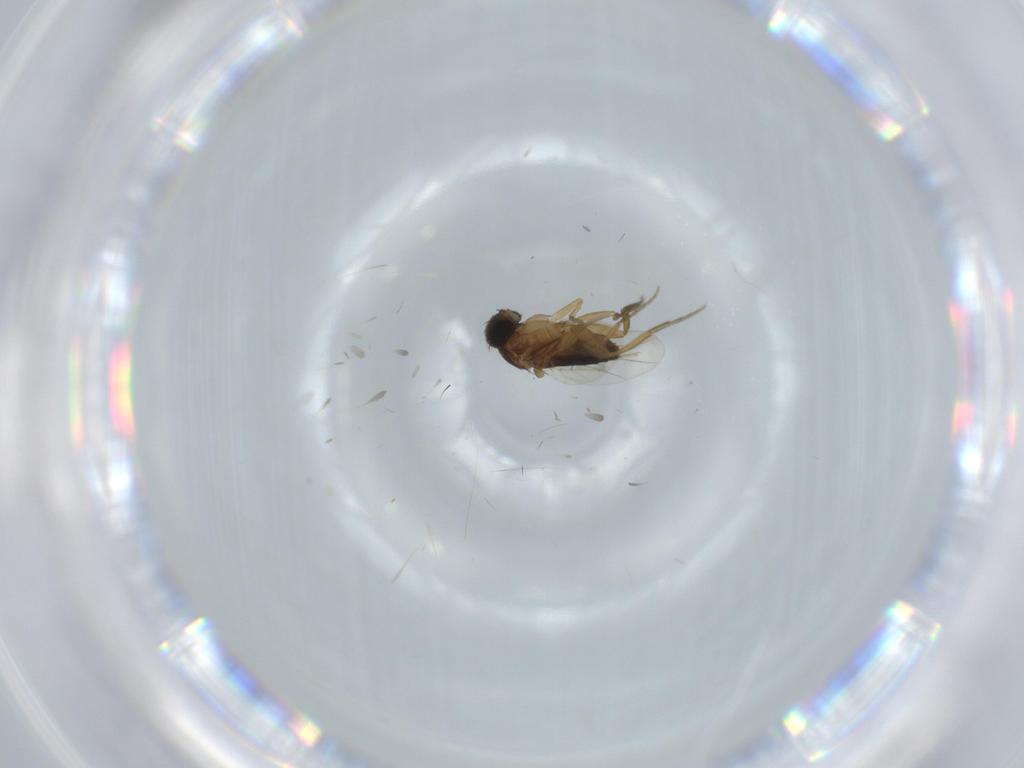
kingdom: Animalia
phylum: Arthropoda
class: Insecta
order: Diptera
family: Phoridae
